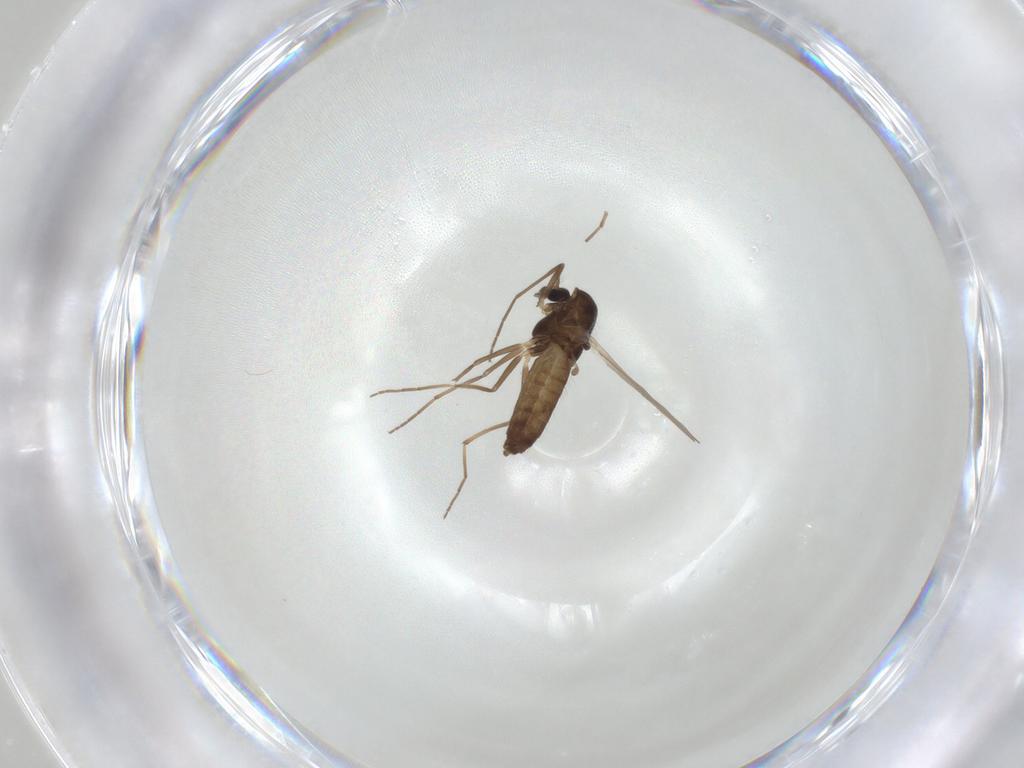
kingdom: Animalia
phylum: Arthropoda
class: Insecta
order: Diptera
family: Chironomidae
